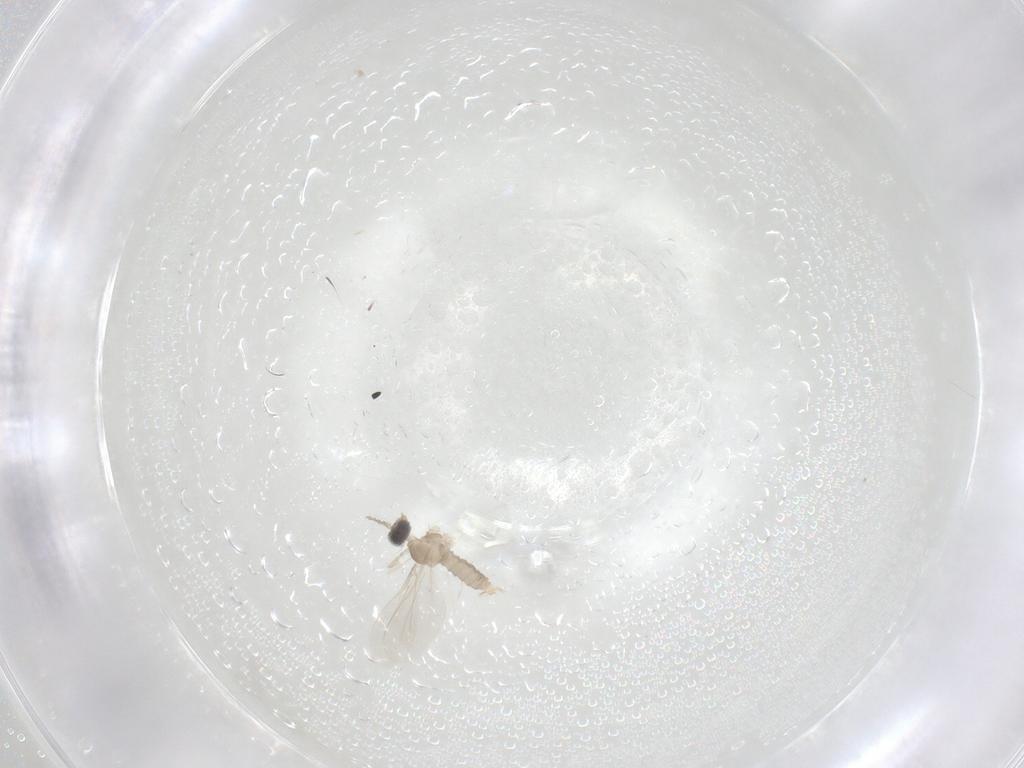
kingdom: Animalia
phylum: Arthropoda
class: Insecta
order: Diptera
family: Cecidomyiidae
